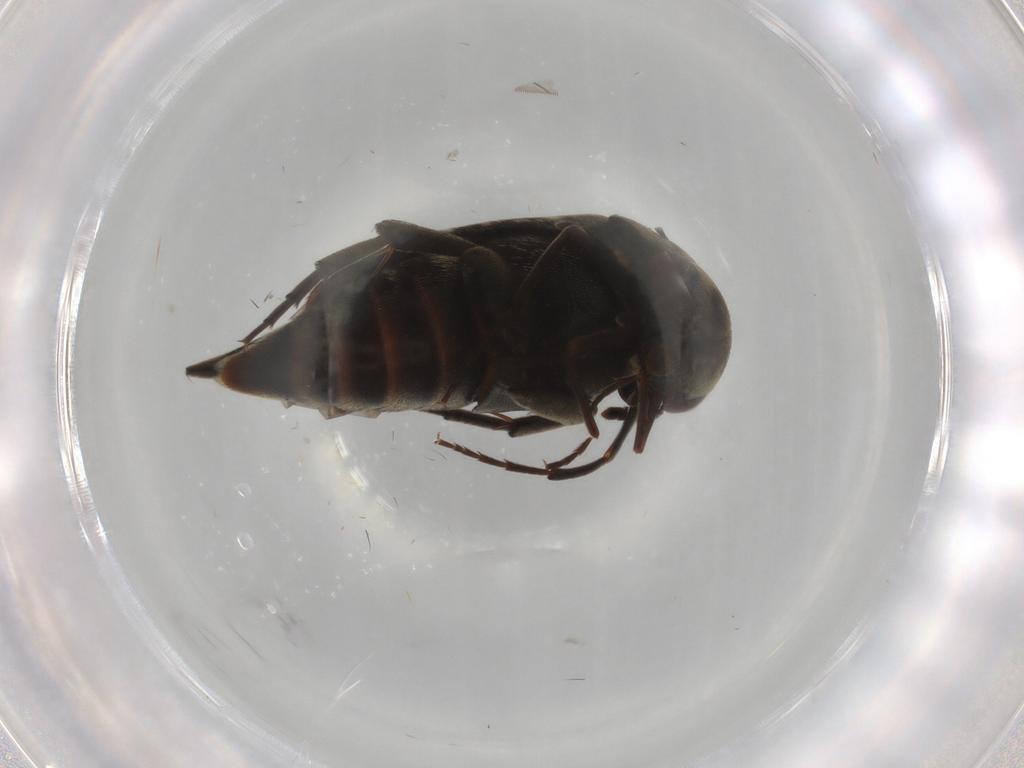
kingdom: Animalia
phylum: Arthropoda
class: Insecta
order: Coleoptera
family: Mordellidae
